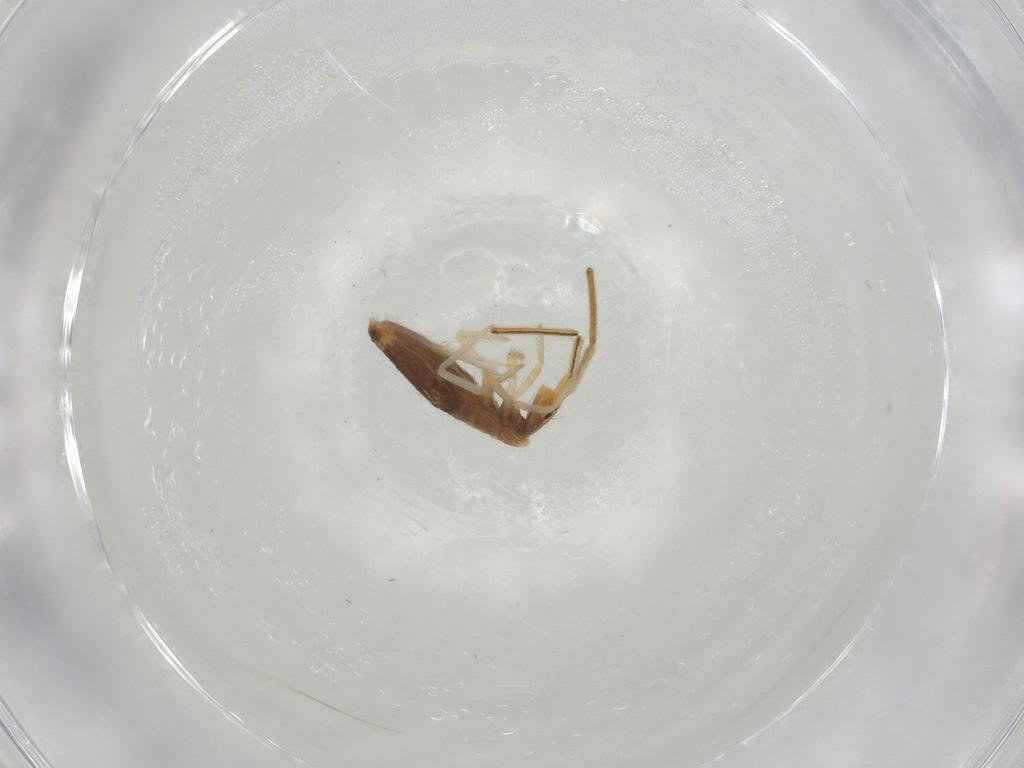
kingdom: Animalia
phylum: Arthropoda
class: Collembola
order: Entomobryomorpha
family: Entomobryidae
